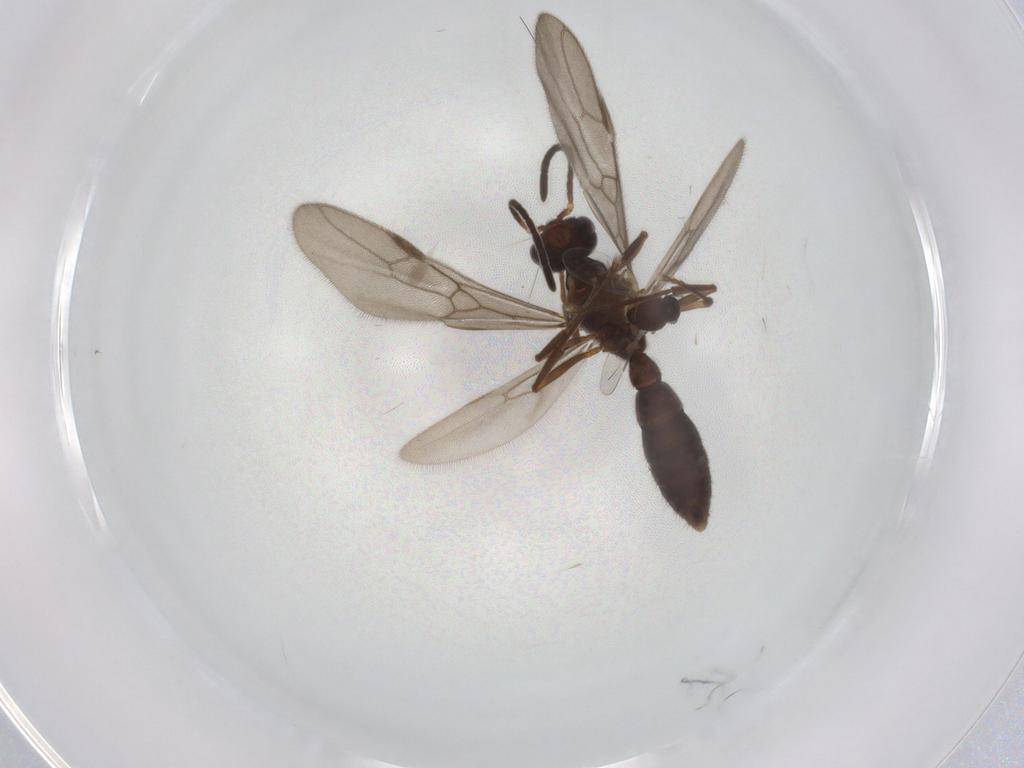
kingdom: Animalia
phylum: Arthropoda
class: Insecta
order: Hymenoptera
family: Formicidae
